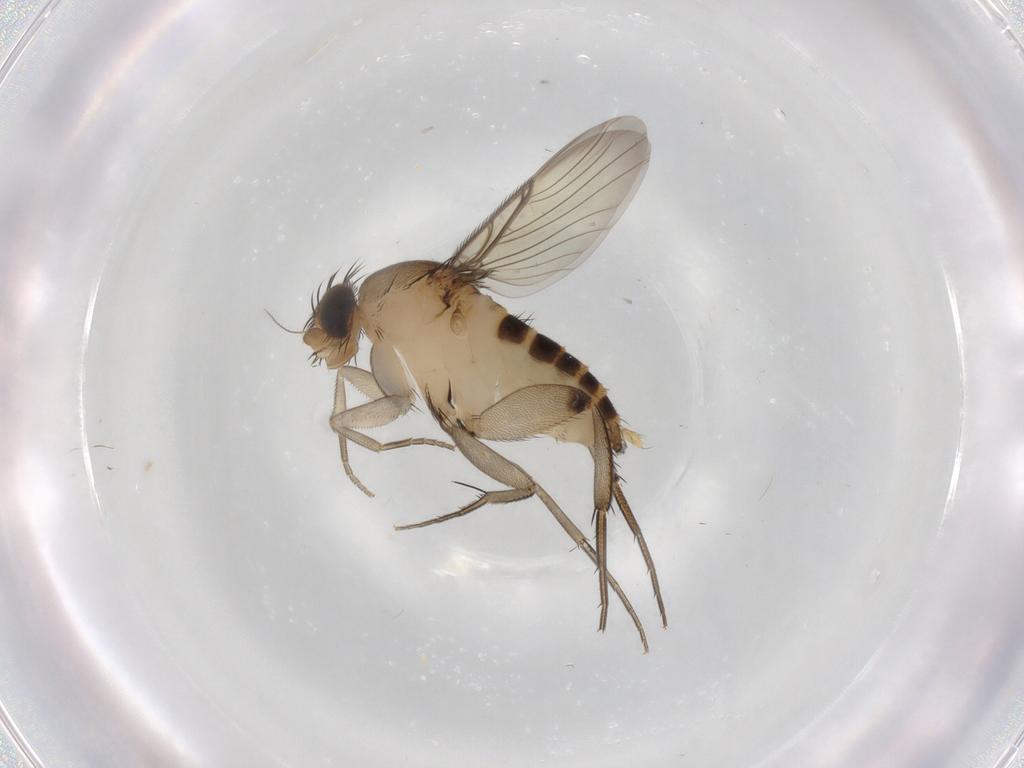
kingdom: Animalia
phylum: Arthropoda
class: Insecta
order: Diptera
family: Phoridae
